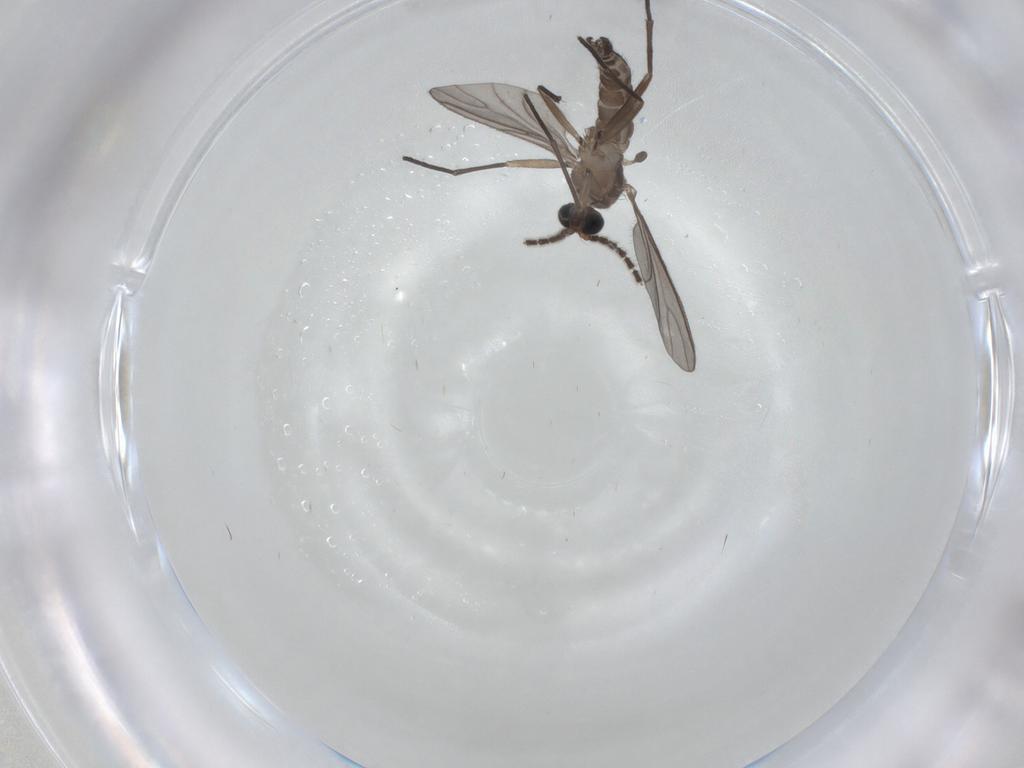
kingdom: Animalia
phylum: Arthropoda
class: Insecta
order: Diptera
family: Sciaridae
